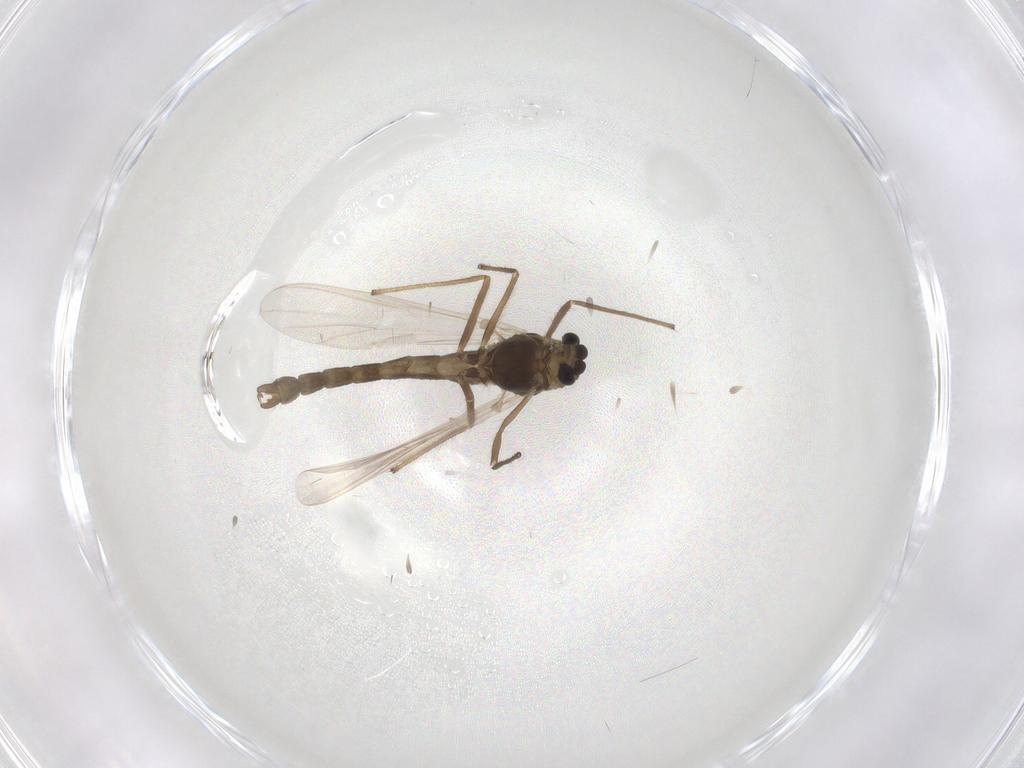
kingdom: Animalia
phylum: Arthropoda
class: Insecta
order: Diptera
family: Chironomidae
